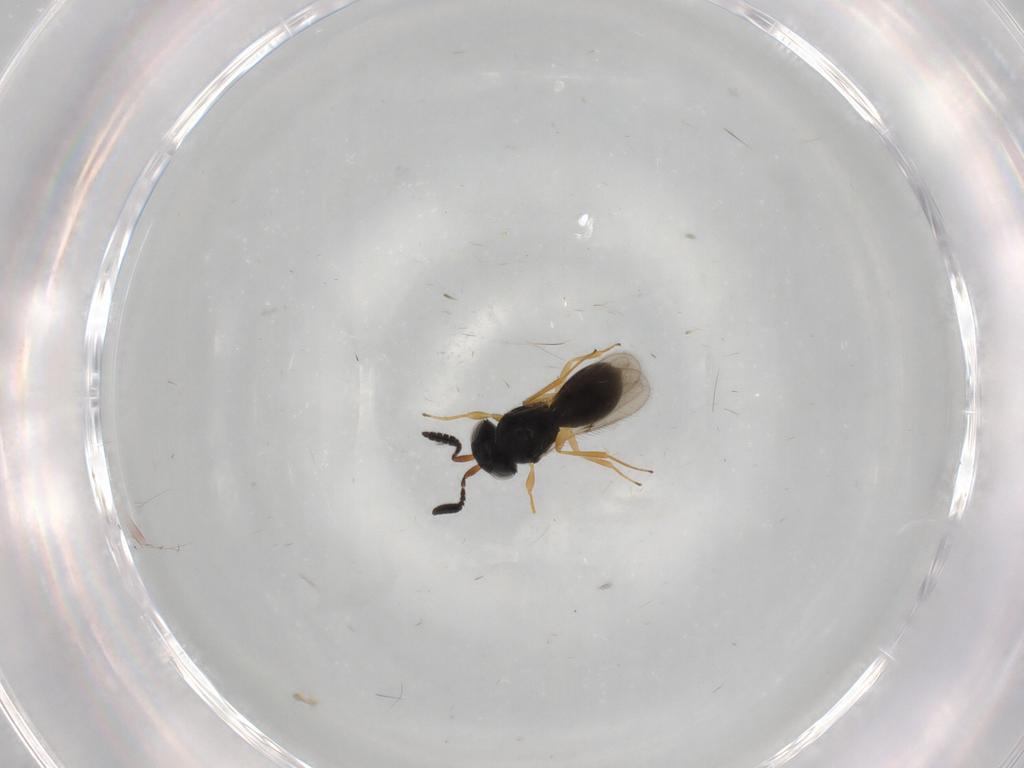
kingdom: Animalia
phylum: Arthropoda
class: Insecta
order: Hymenoptera
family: Scelionidae
